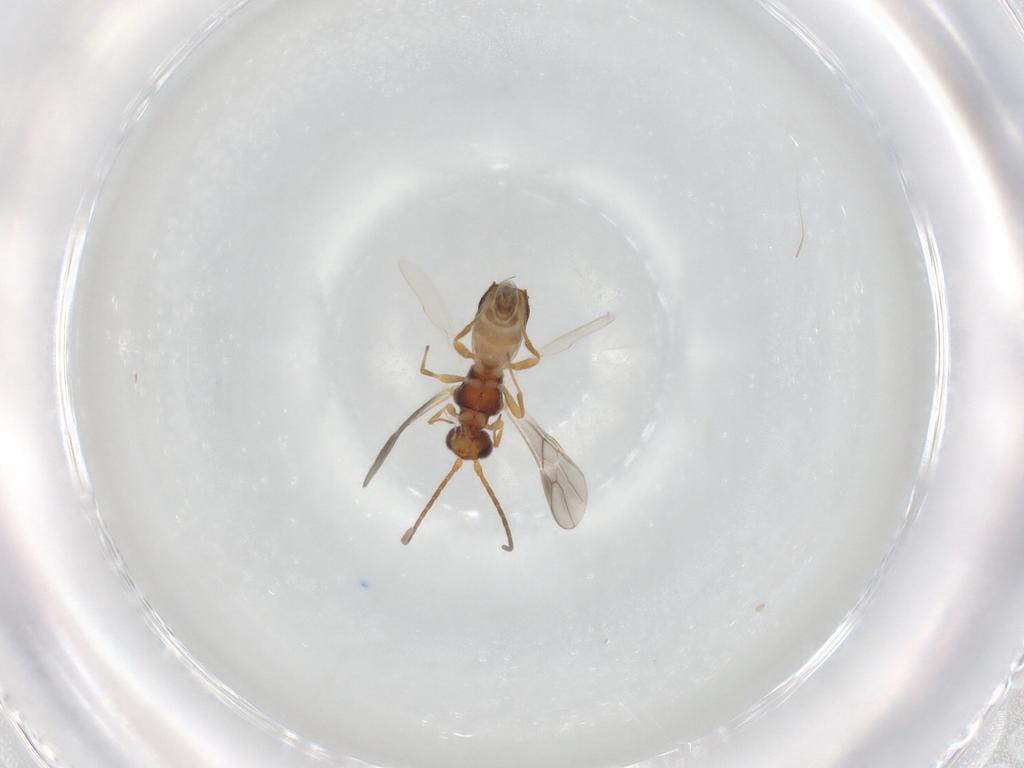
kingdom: Animalia
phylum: Arthropoda
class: Insecta
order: Hymenoptera
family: Braconidae
